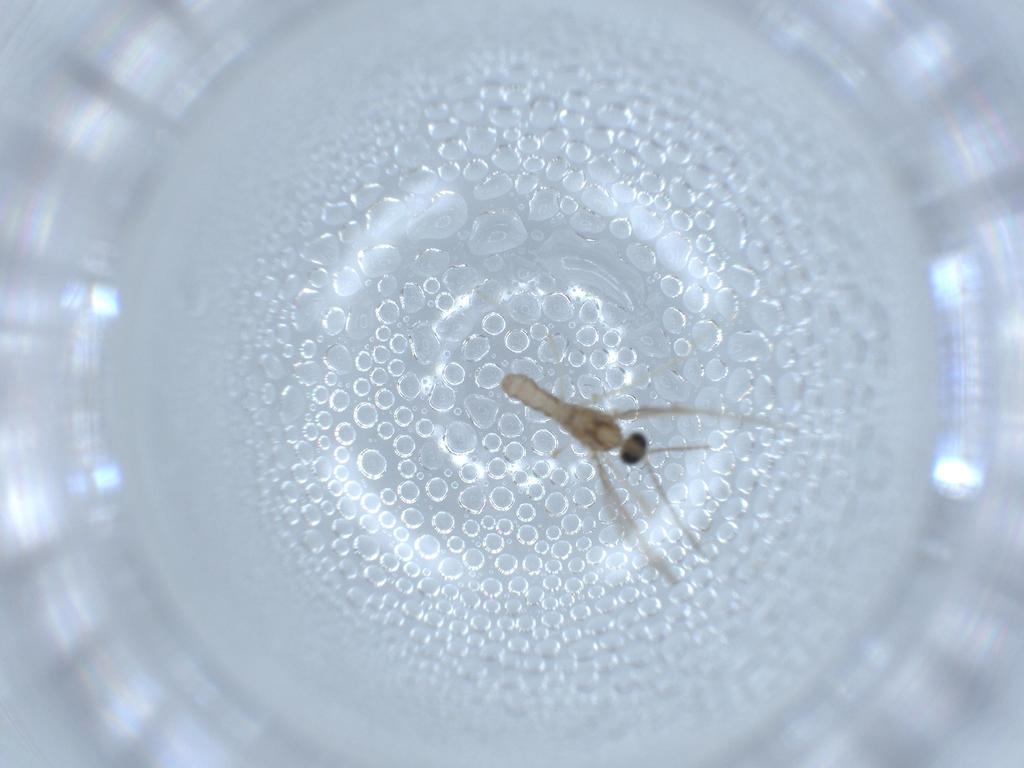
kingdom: Animalia
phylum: Arthropoda
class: Insecta
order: Diptera
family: Cecidomyiidae
